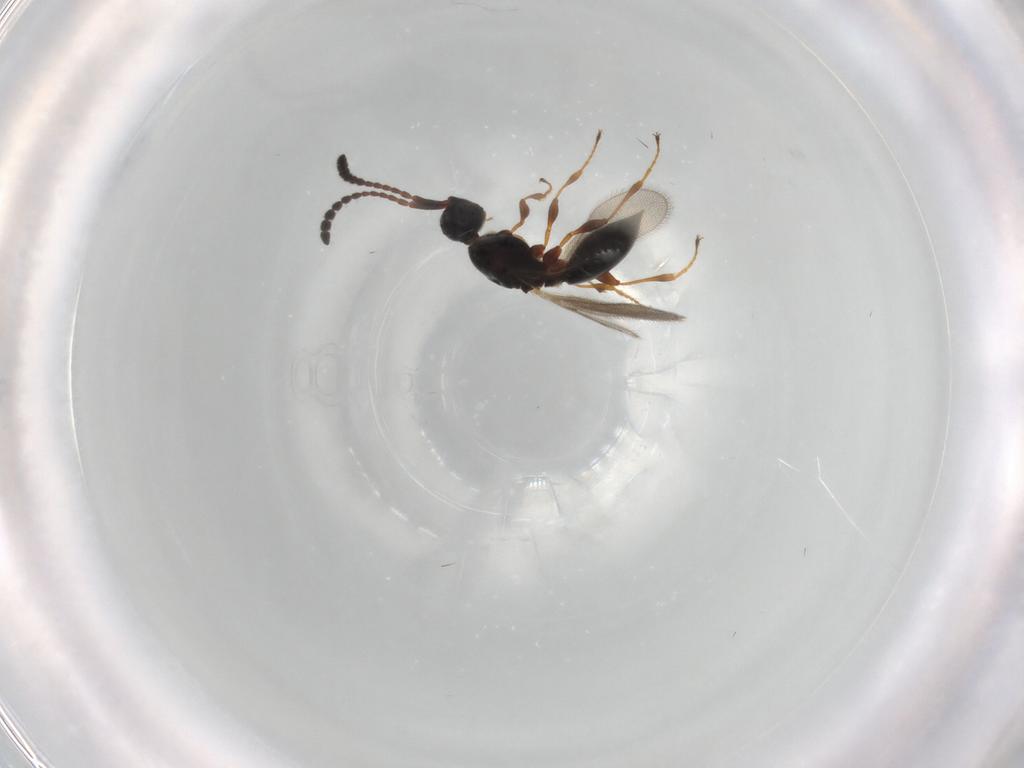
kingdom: Animalia
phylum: Arthropoda
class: Insecta
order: Hymenoptera
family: Diapriidae
